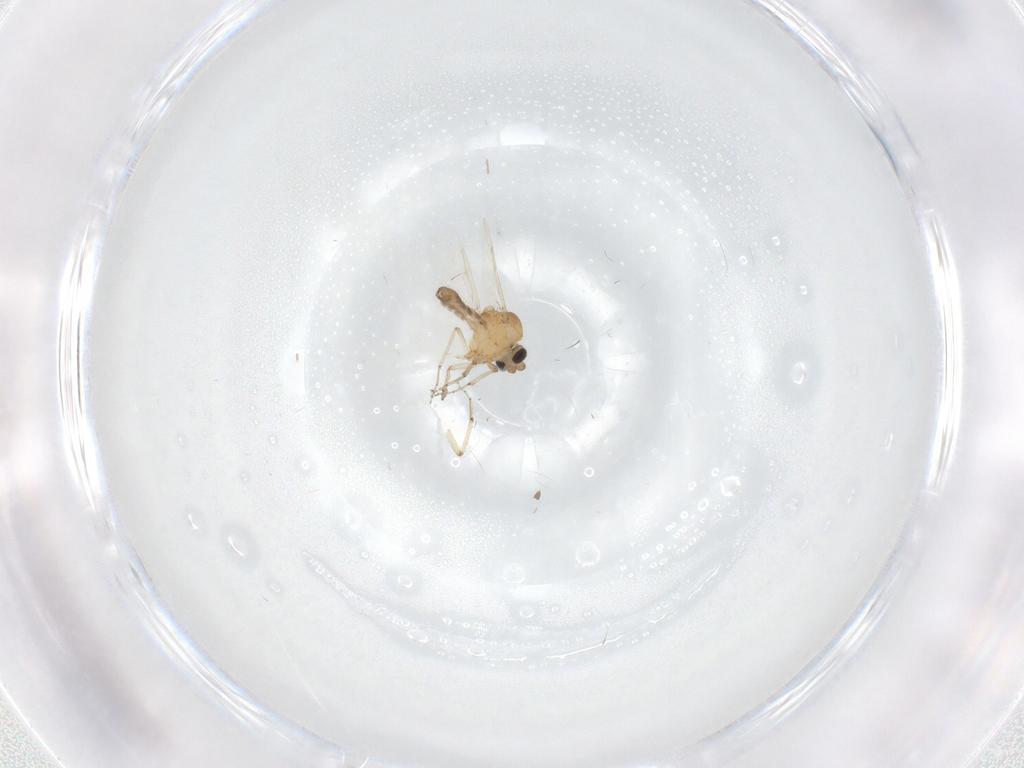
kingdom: Animalia
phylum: Arthropoda
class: Insecta
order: Diptera
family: Ceratopogonidae
